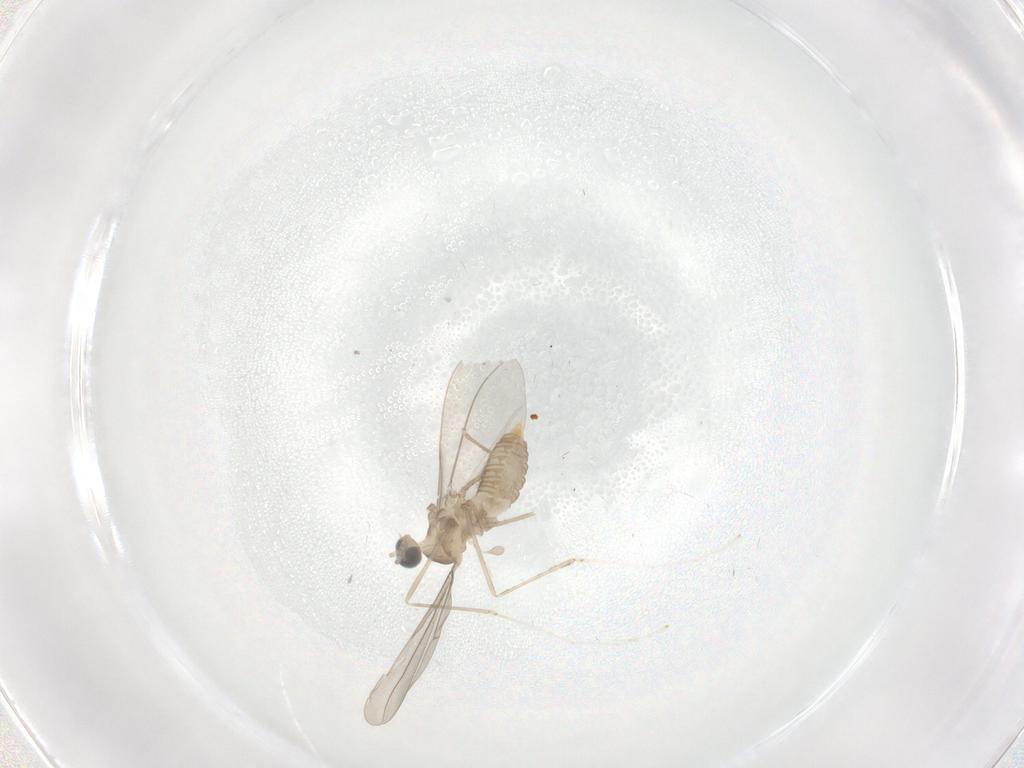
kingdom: Animalia
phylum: Arthropoda
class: Insecta
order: Diptera
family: Cecidomyiidae
